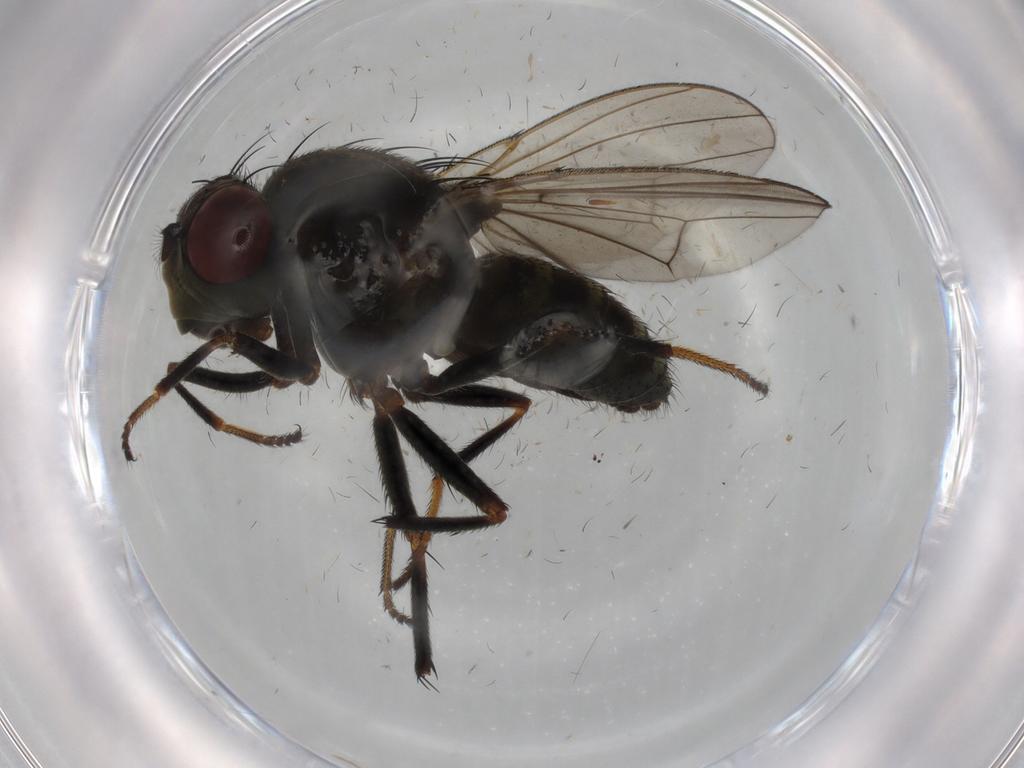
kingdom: Animalia
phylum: Arthropoda
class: Insecta
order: Diptera
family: Ephydridae
